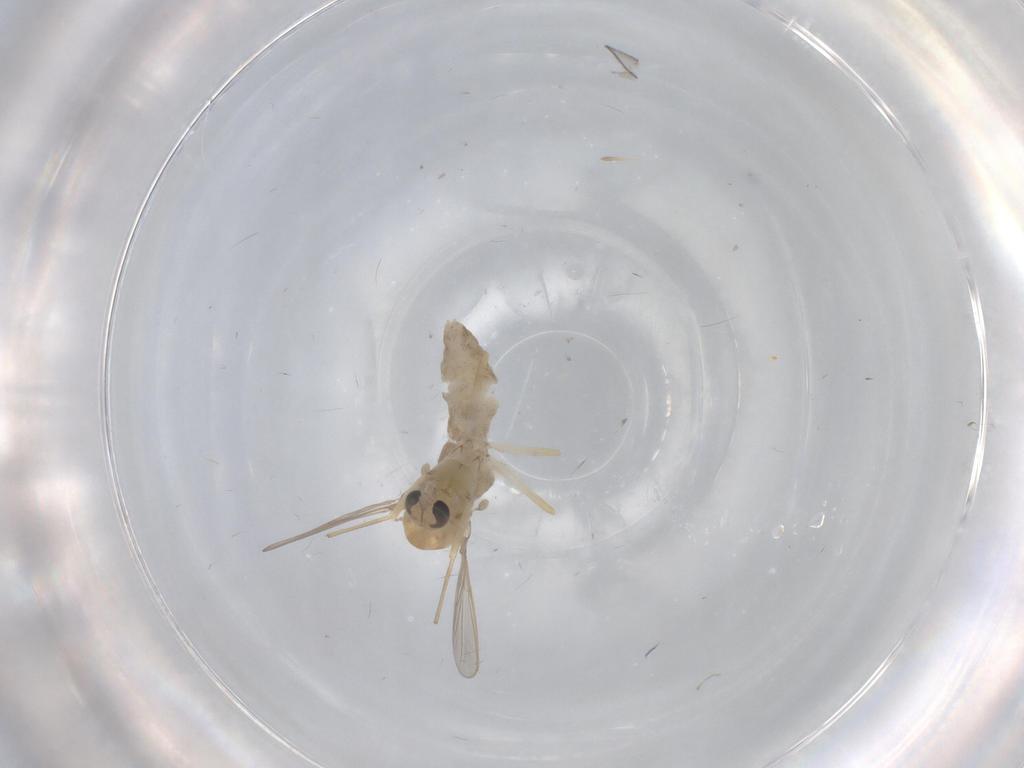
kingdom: Animalia
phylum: Arthropoda
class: Insecta
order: Diptera
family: Chironomidae
